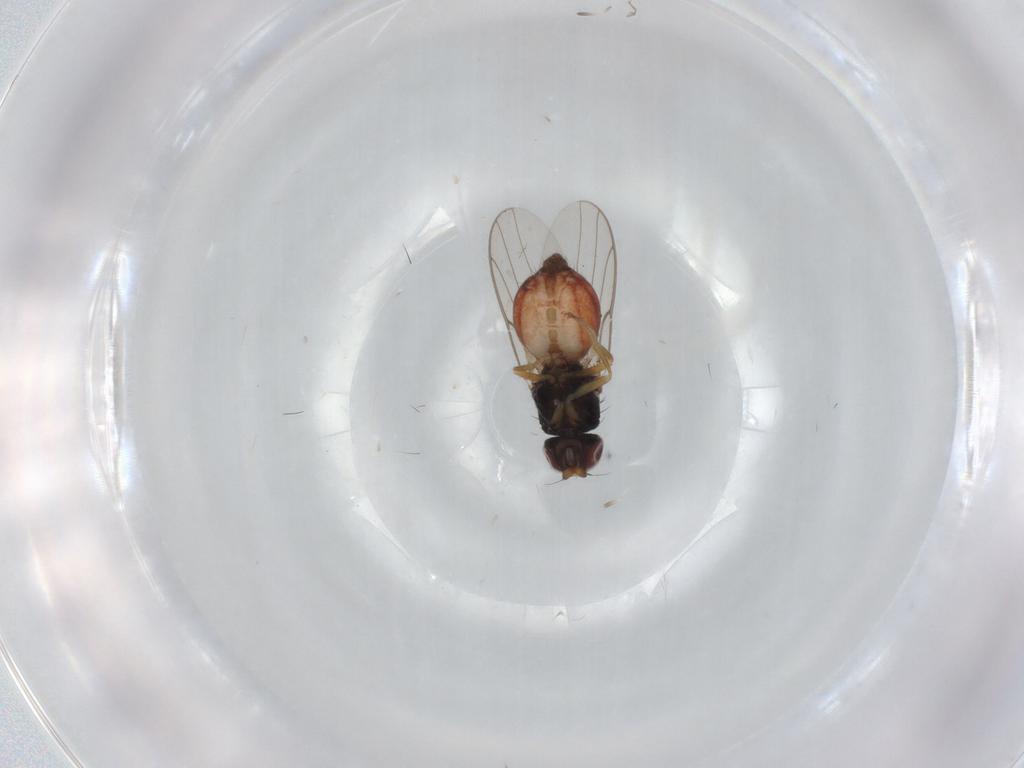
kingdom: Animalia
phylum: Arthropoda
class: Insecta
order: Diptera
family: Chloropidae
